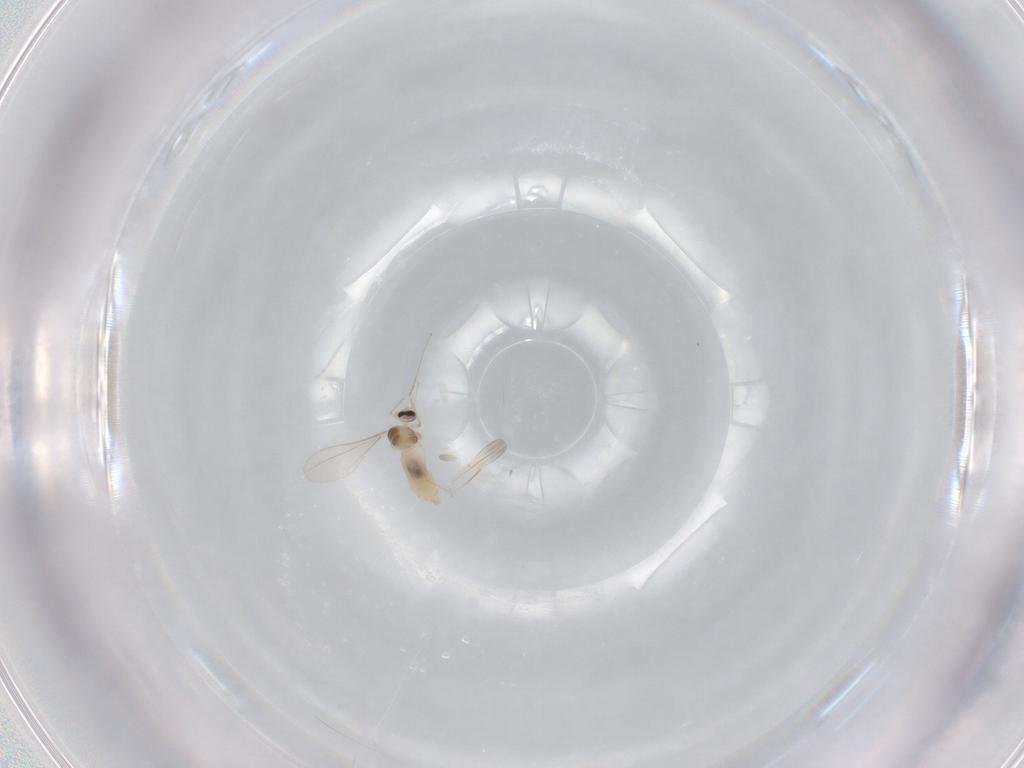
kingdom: Animalia
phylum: Arthropoda
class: Insecta
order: Diptera
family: Cecidomyiidae
